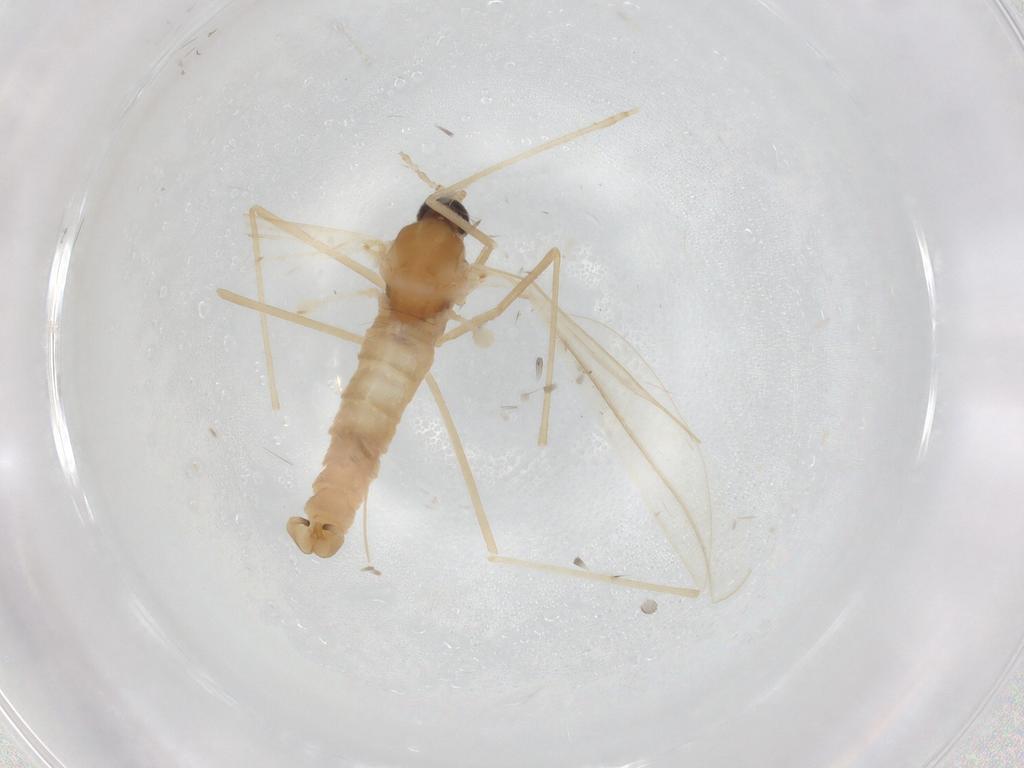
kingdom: Animalia
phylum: Arthropoda
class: Insecta
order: Diptera
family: Cecidomyiidae
